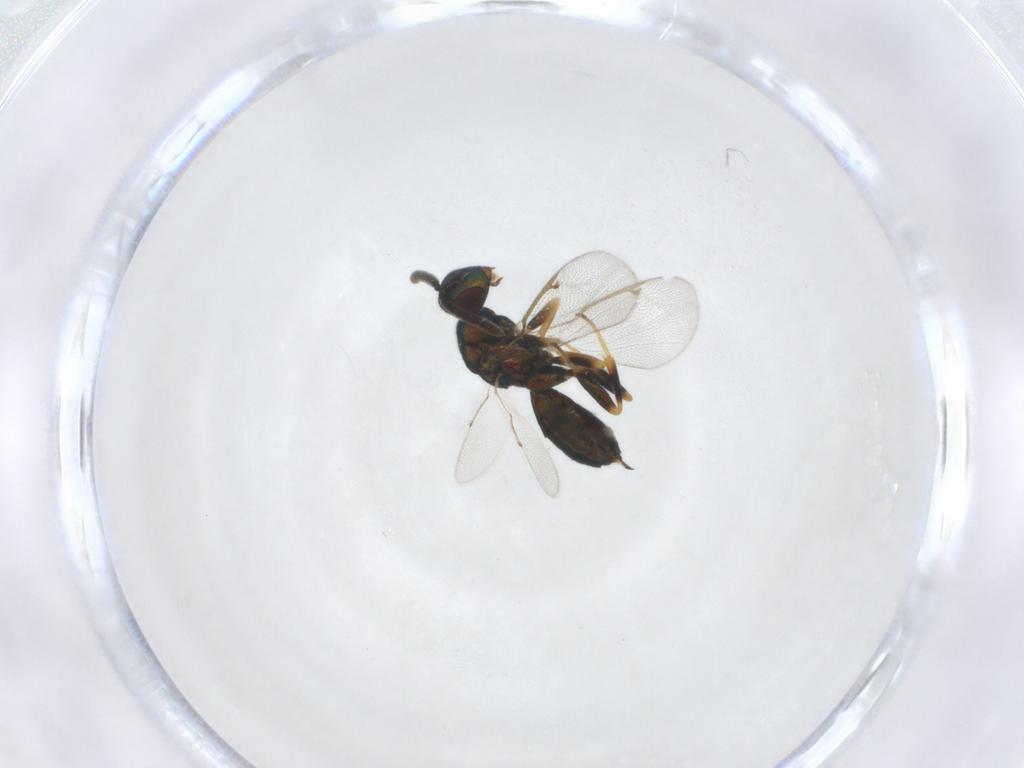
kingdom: Animalia
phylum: Arthropoda
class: Insecta
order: Hymenoptera
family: Torymidae
